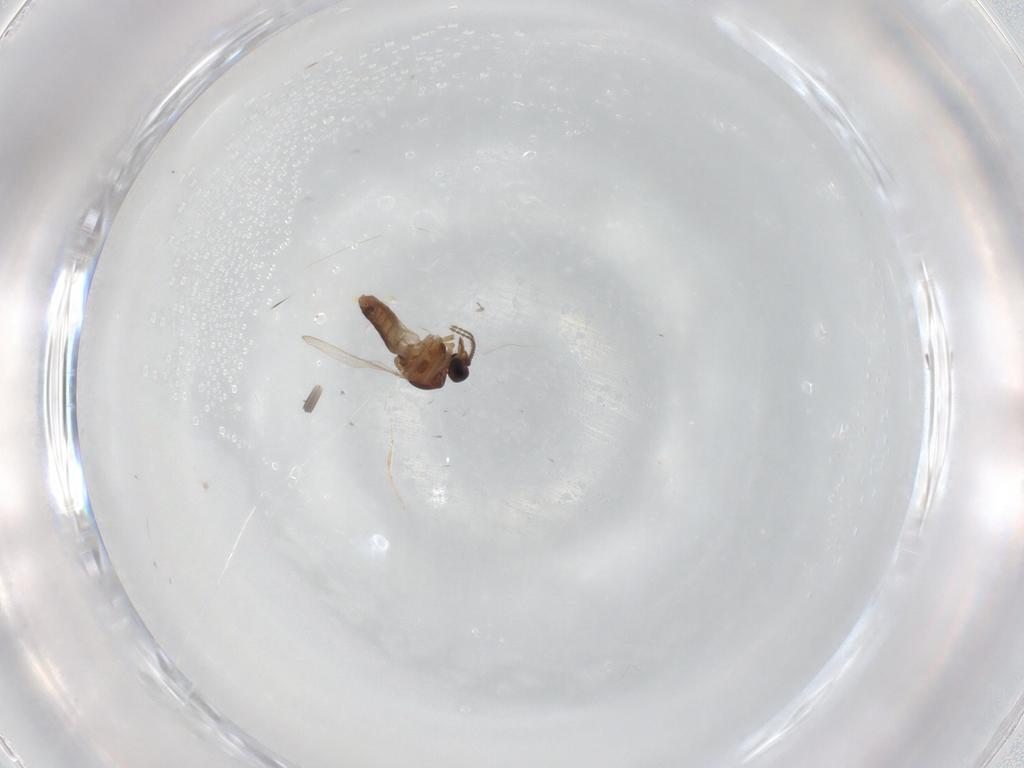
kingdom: Animalia
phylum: Arthropoda
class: Insecta
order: Diptera
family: Ceratopogonidae
